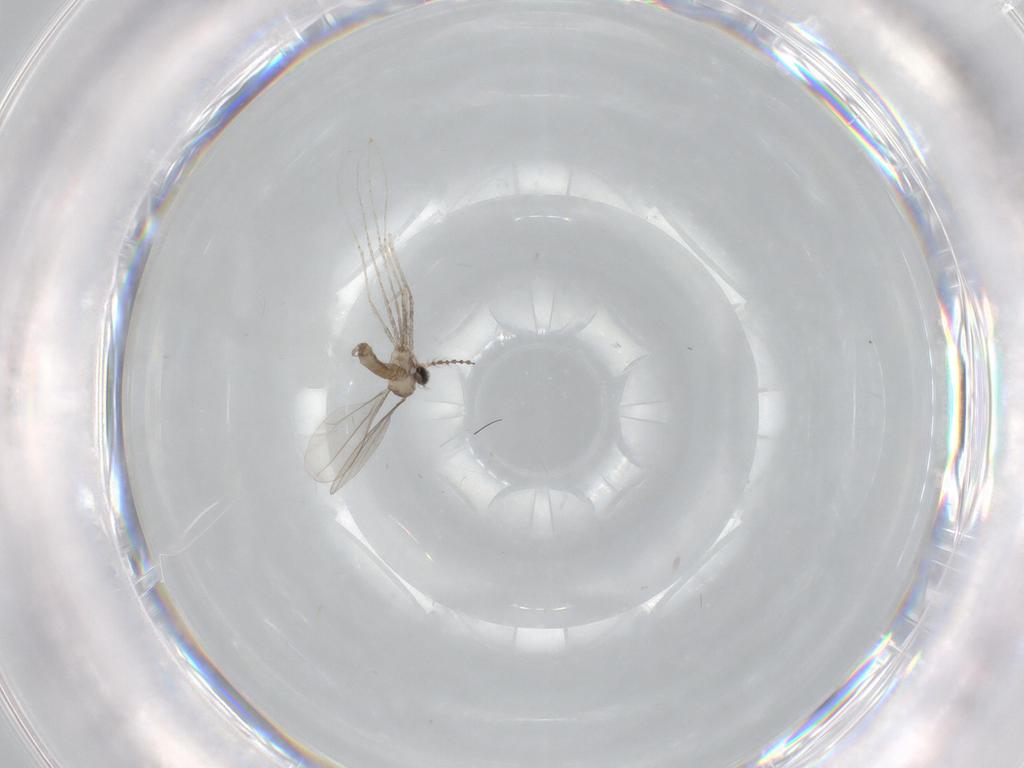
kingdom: Animalia
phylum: Arthropoda
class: Insecta
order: Diptera
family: Cecidomyiidae
